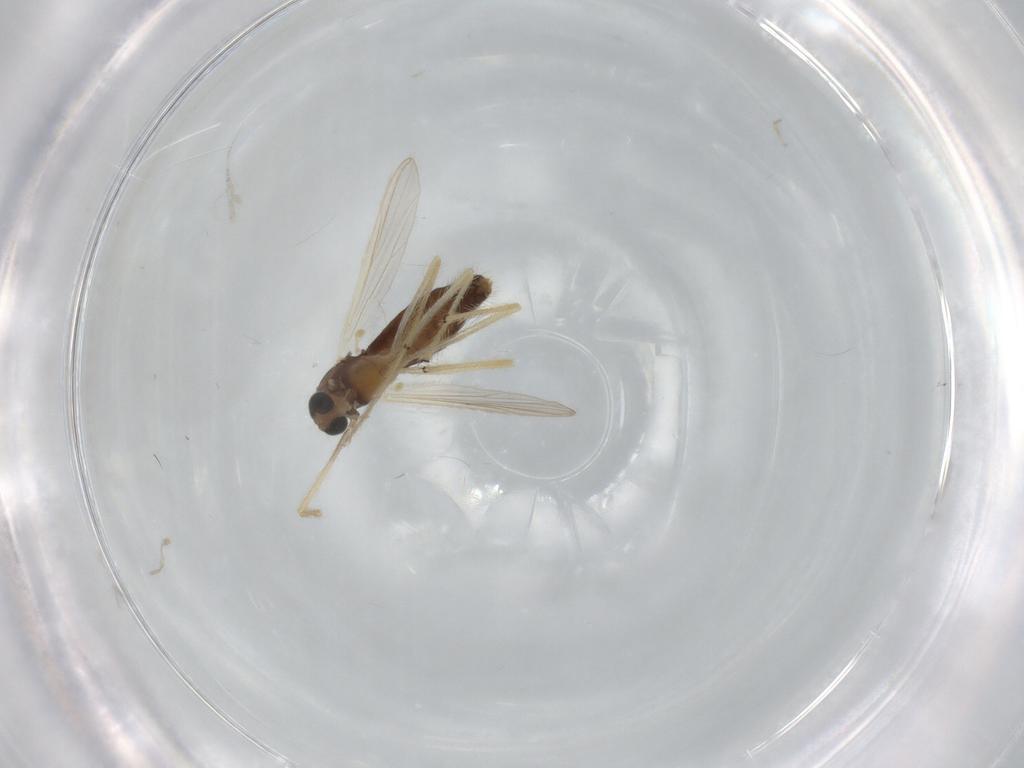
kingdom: Animalia
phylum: Arthropoda
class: Insecta
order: Diptera
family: Chironomidae
